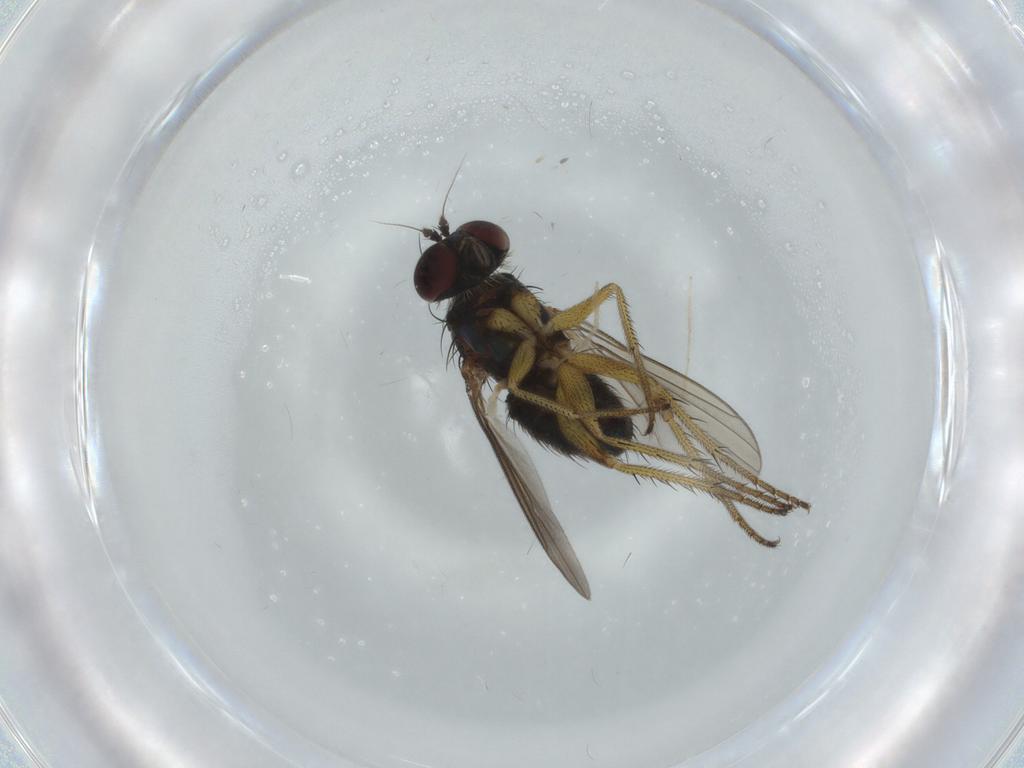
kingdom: Animalia
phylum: Arthropoda
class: Insecta
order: Diptera
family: Dolichopodidae
